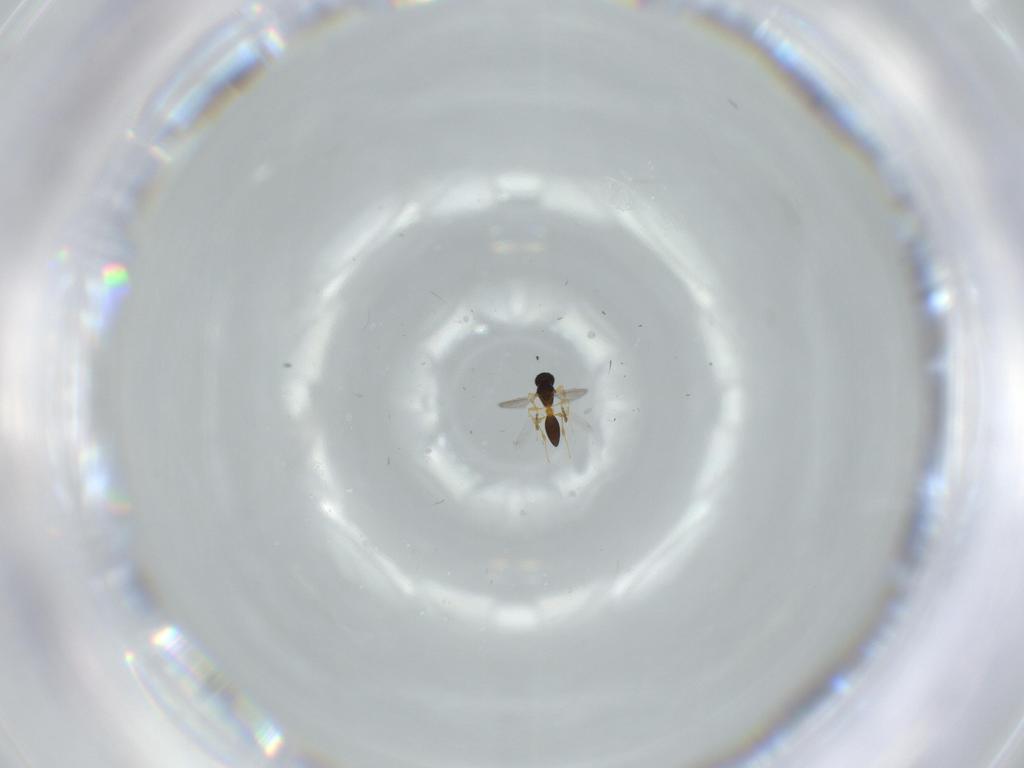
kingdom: Animalia
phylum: Arthropoda
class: Insecta
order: Hymenoptera
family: Platygastridae
